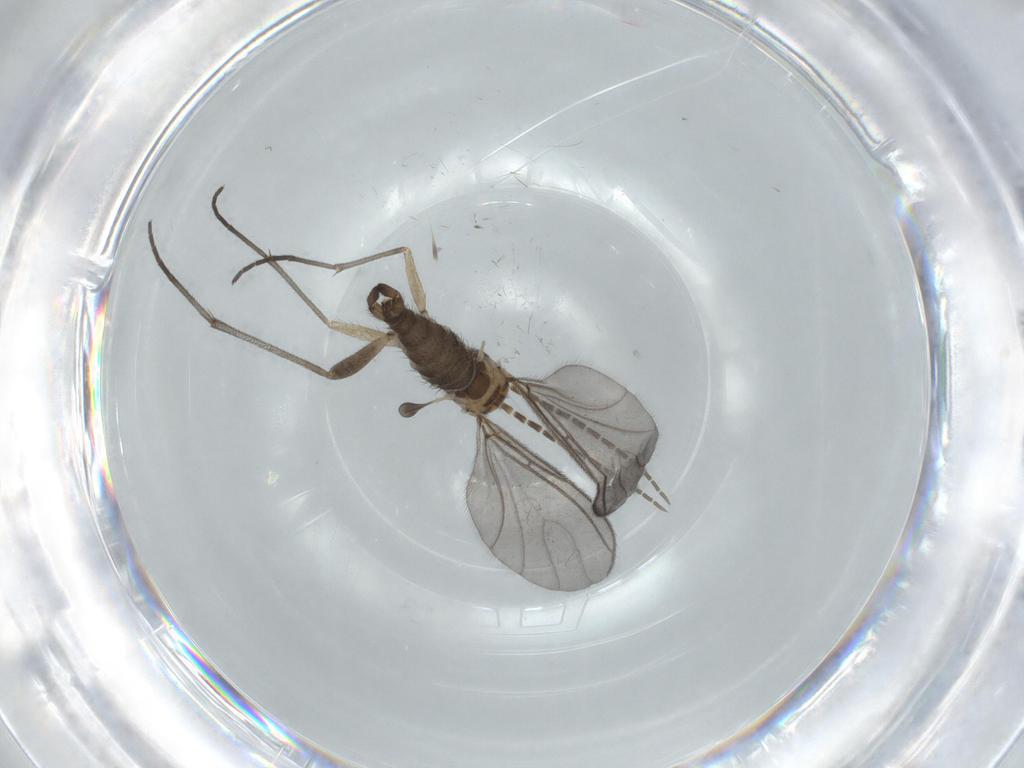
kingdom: Animalia
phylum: Arthropoda
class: Insecta
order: Diptera
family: Sciaridae
